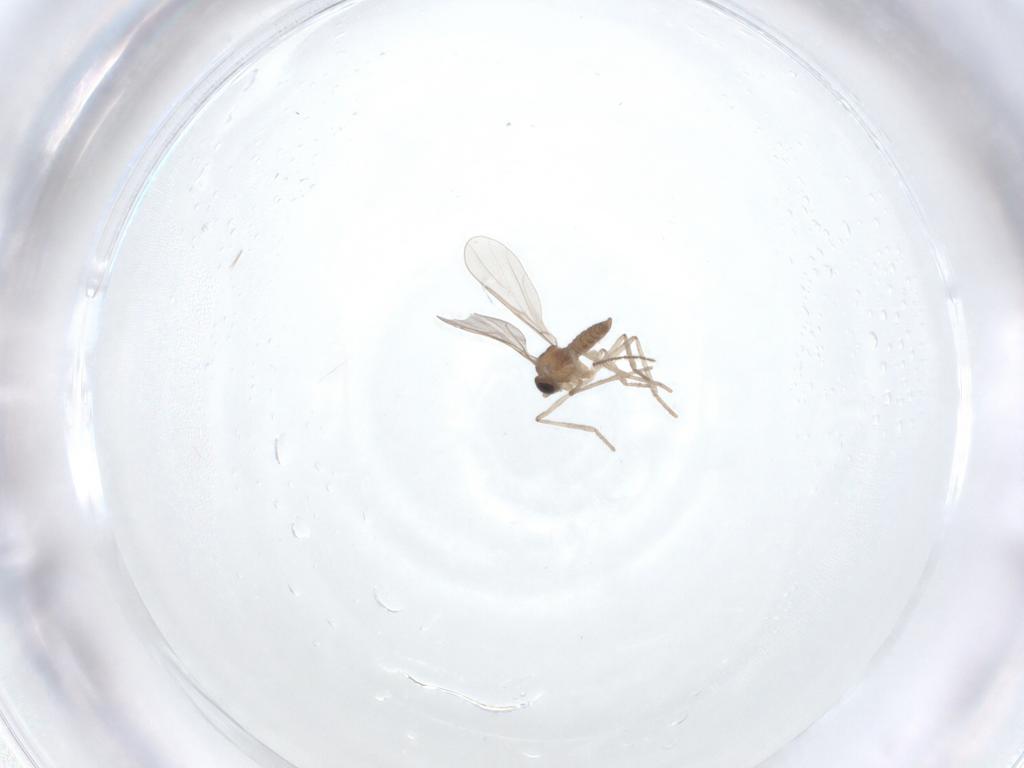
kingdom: Animalia
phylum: Arthropoda
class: Insecta
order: Diptera
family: Cecidomyiidae
